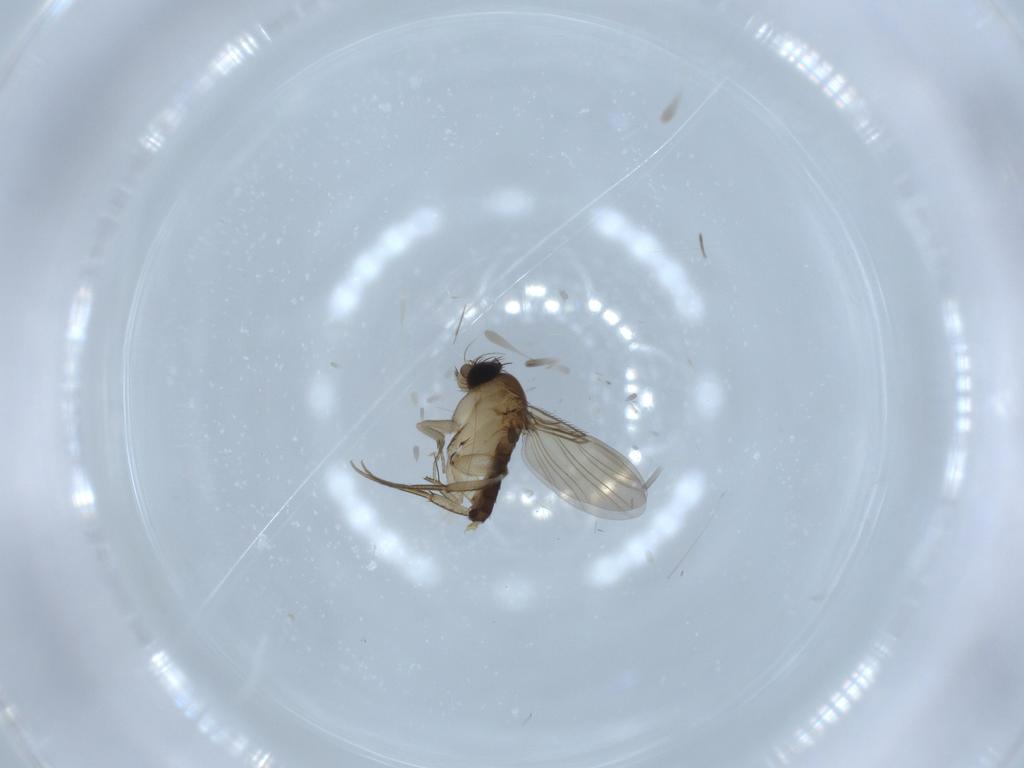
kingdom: Animalia
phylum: Arthropoda
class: Insecta
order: Diptera
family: Phoridae
